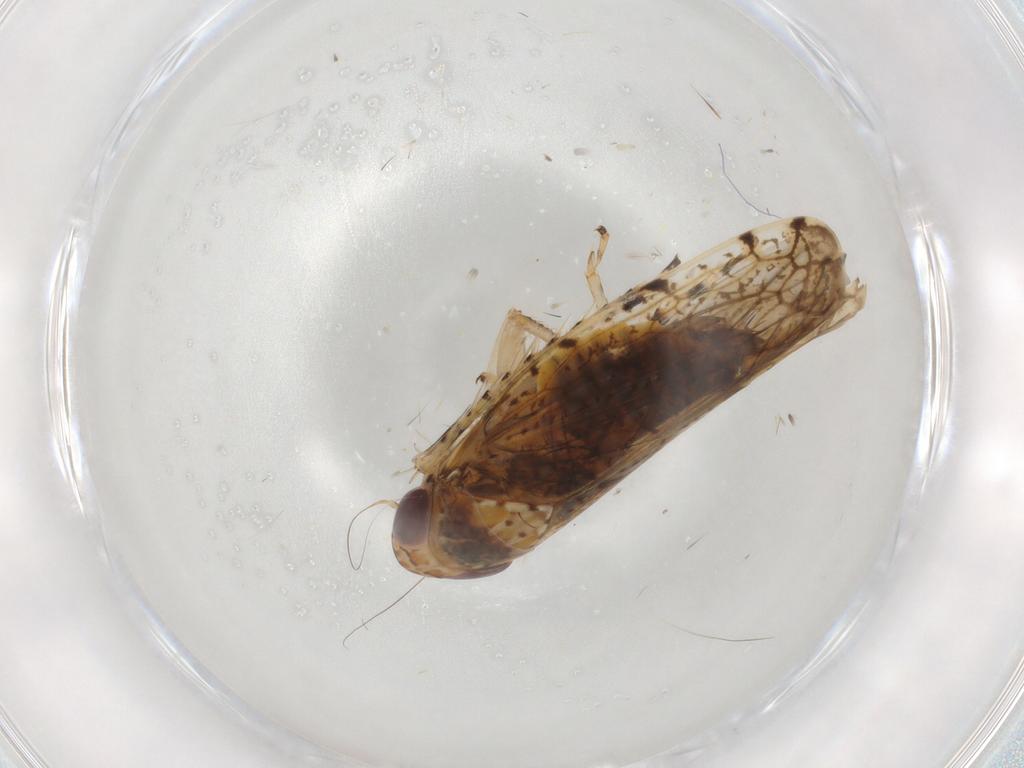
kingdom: Animalia
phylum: Arthropoda
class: Insecta
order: Hemiptera
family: Cicadellidae
